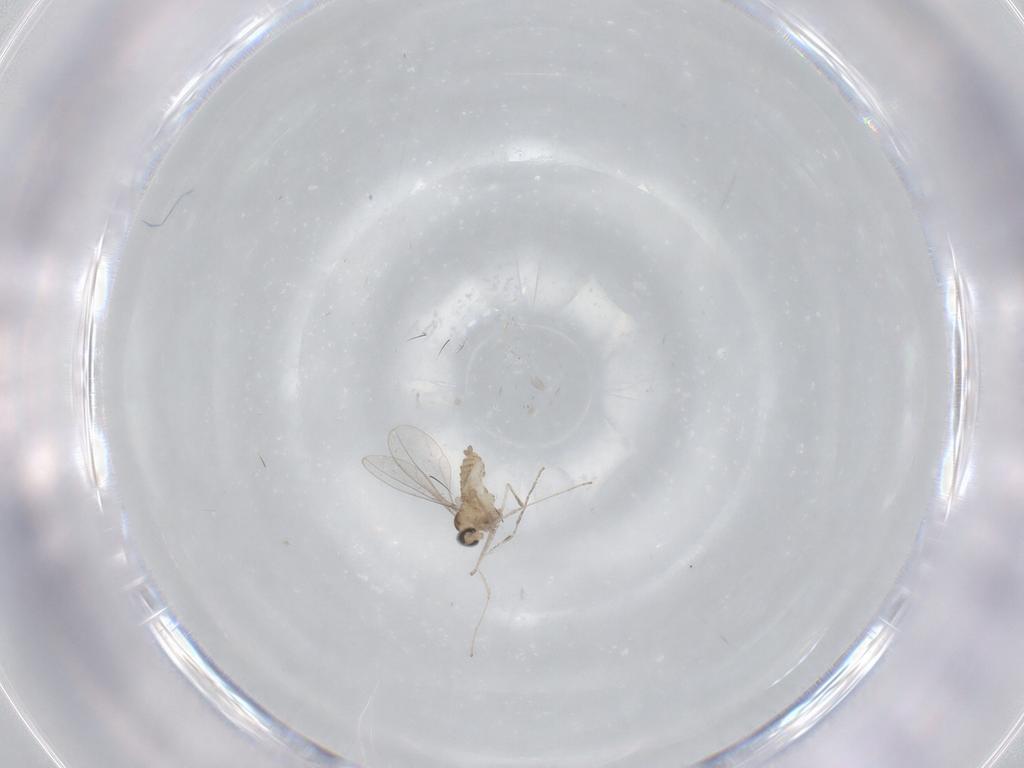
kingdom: Animalia
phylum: Arthropoda
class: Insecta
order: Diptera
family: Cecidomyiidae
